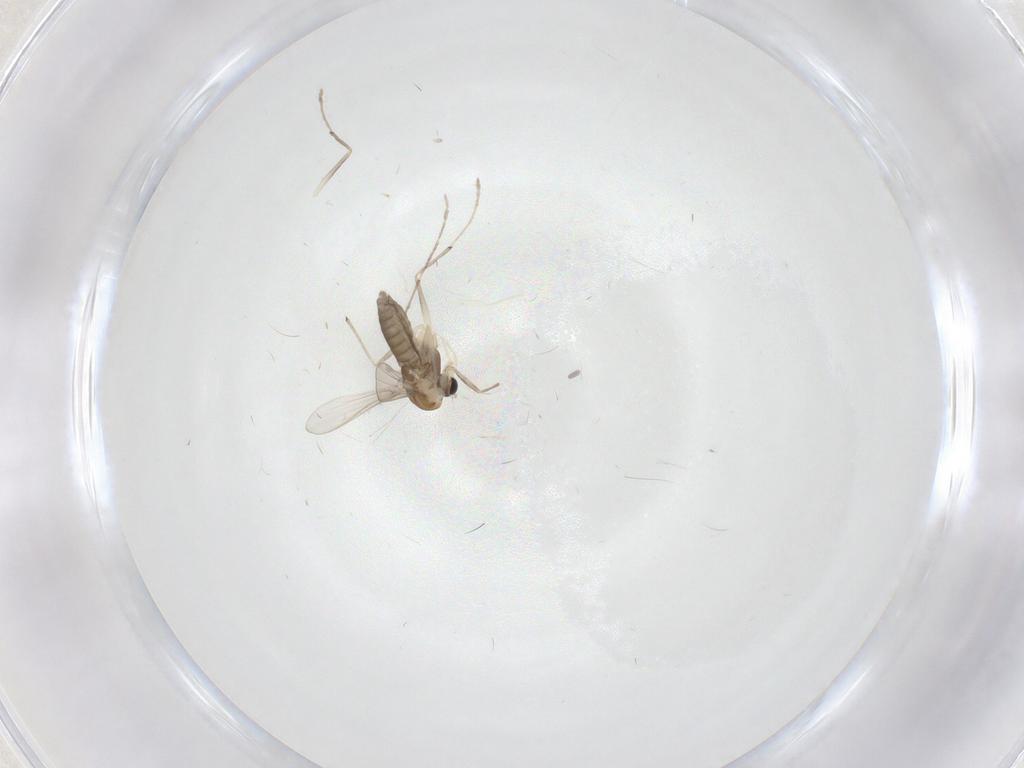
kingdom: Animalia
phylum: Arthropoda
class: Insecta
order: Diptera
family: Chironomidae
